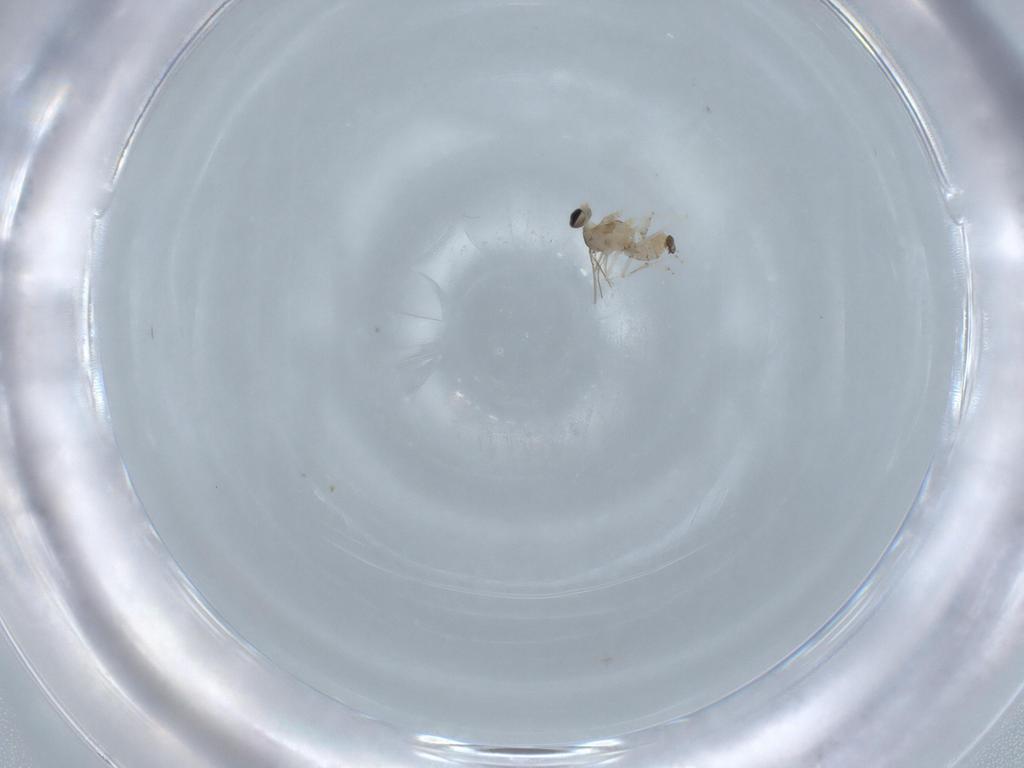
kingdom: Animalia
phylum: Arthropoda
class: Insecta
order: Diptera
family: Cecidomyiidae
